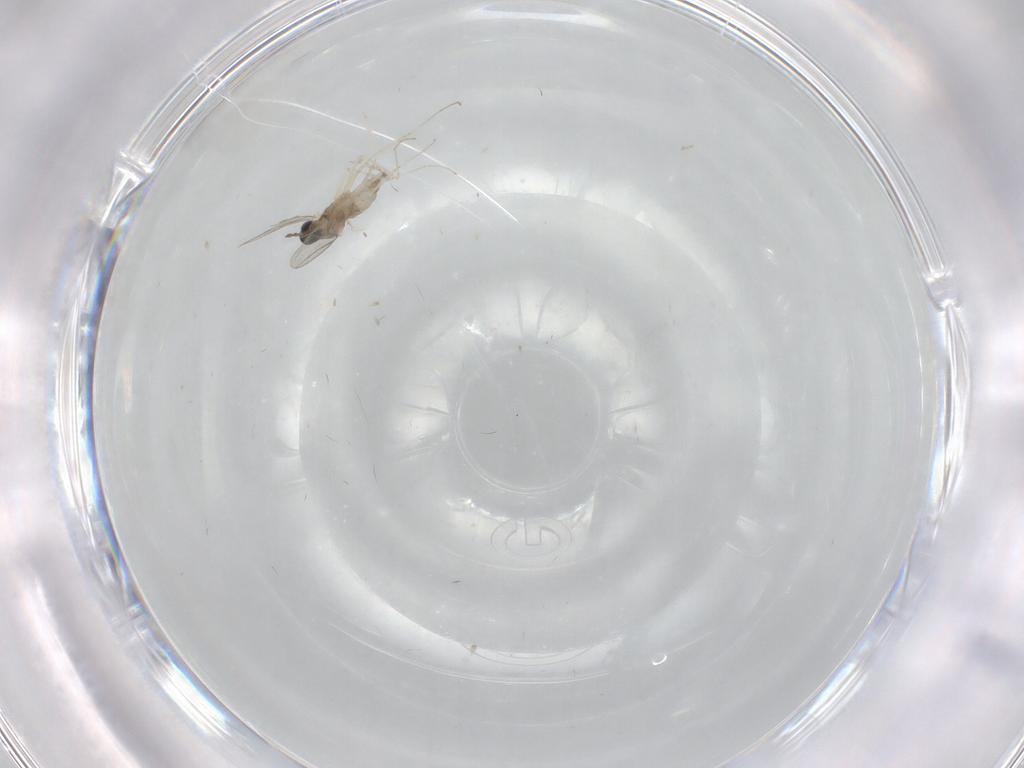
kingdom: Animalia
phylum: Arthropoda
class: Insecta
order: Diptera
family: Cecidomyiidae
